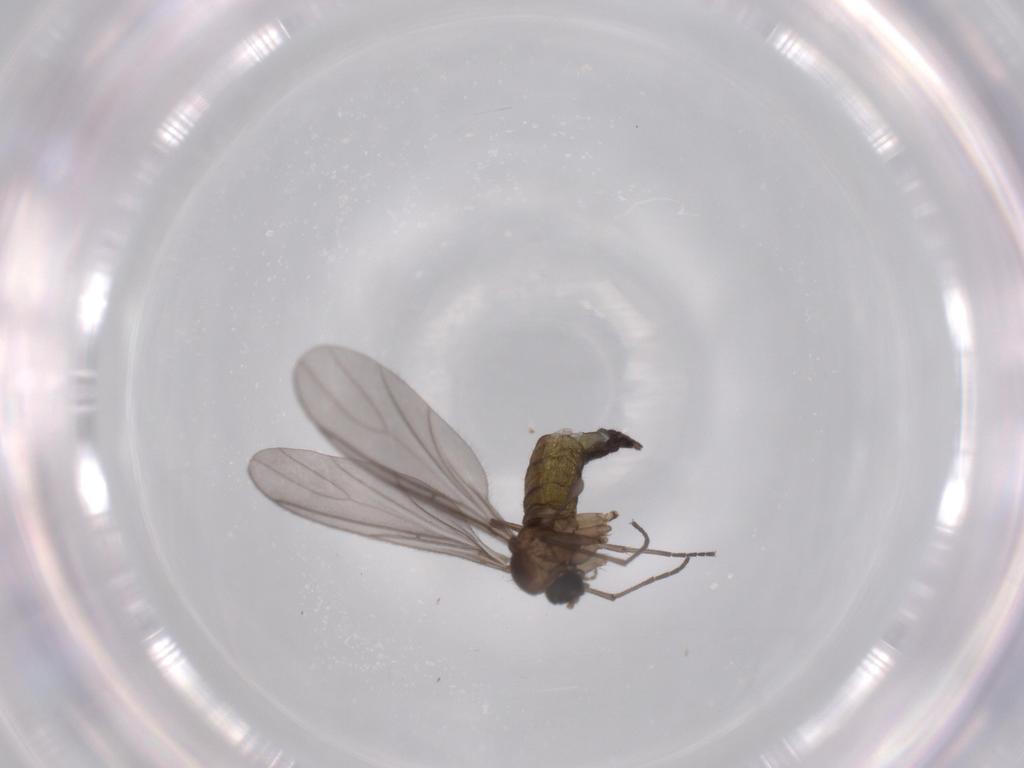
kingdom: Animalia
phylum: Arthropoda
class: Insecta
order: Diptera
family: Sciaridae
